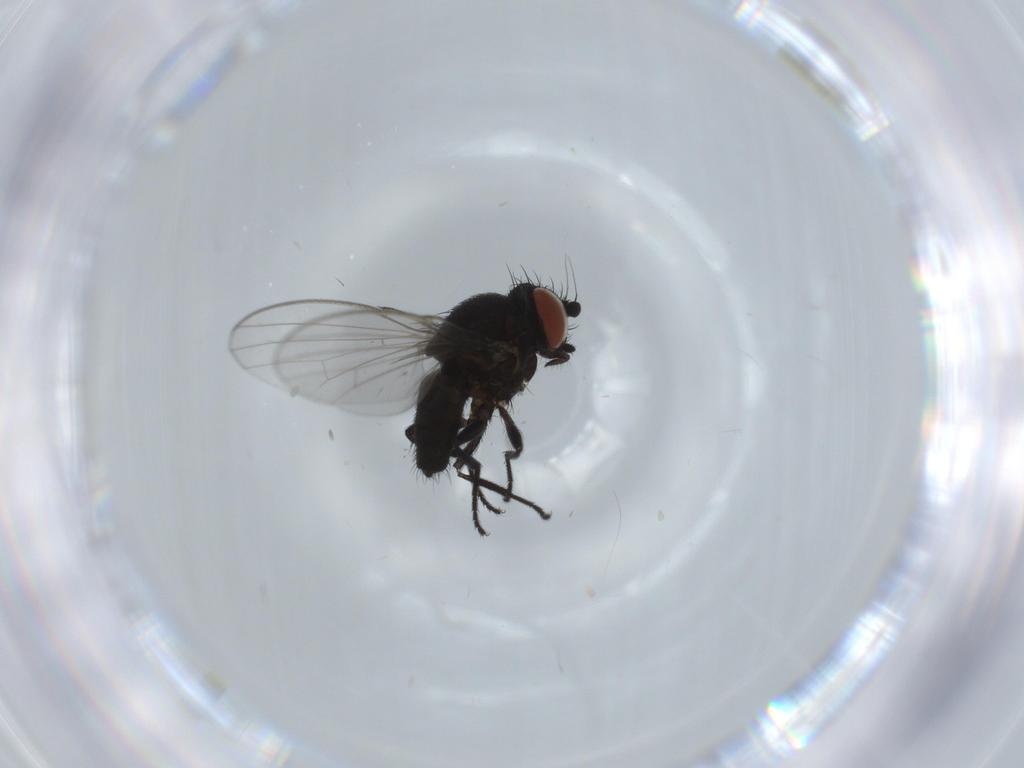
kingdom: Animalia
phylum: Arthropoda
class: Insecta
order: Diptera
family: Milichiidae
